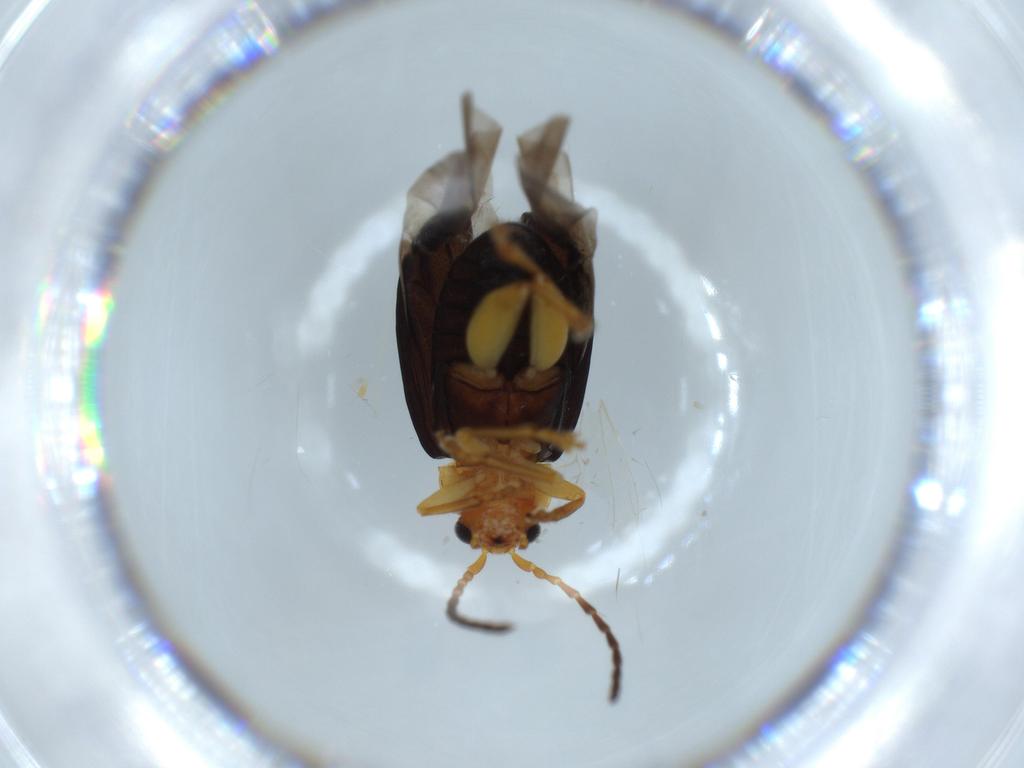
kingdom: Animalia
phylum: Arthropoda
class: Insecta
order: Coleoptera
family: Chrysomelidae
